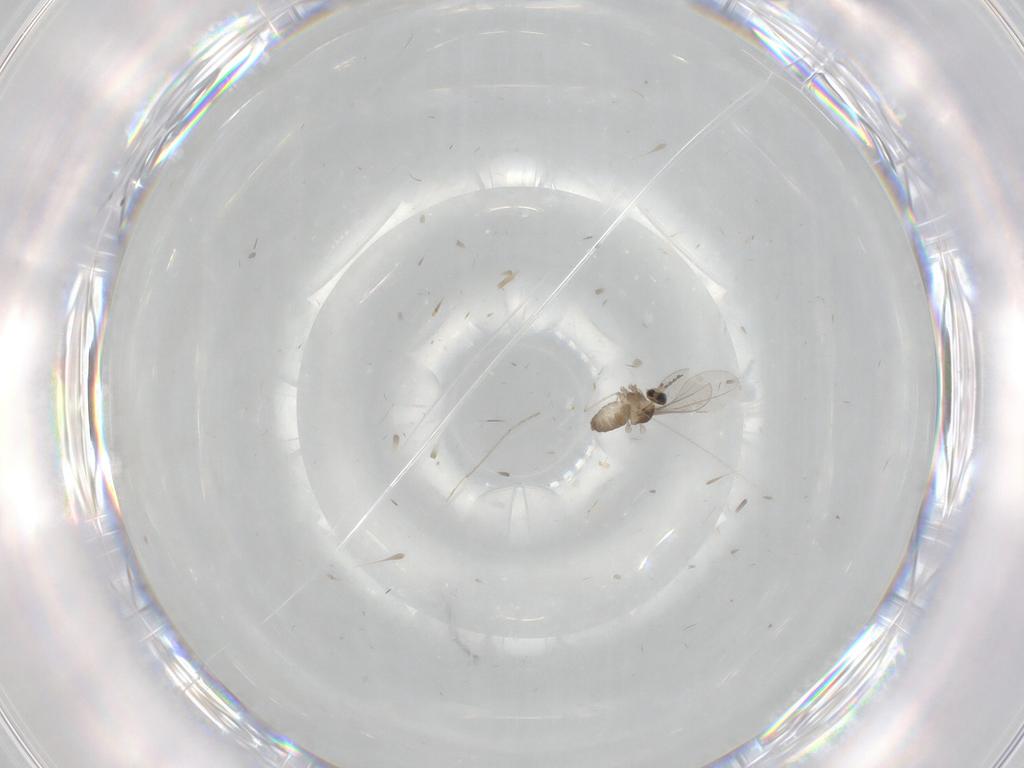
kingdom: Animalia
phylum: Arthropoda
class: Insecta
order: Diptera
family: Cecidomyiidae
